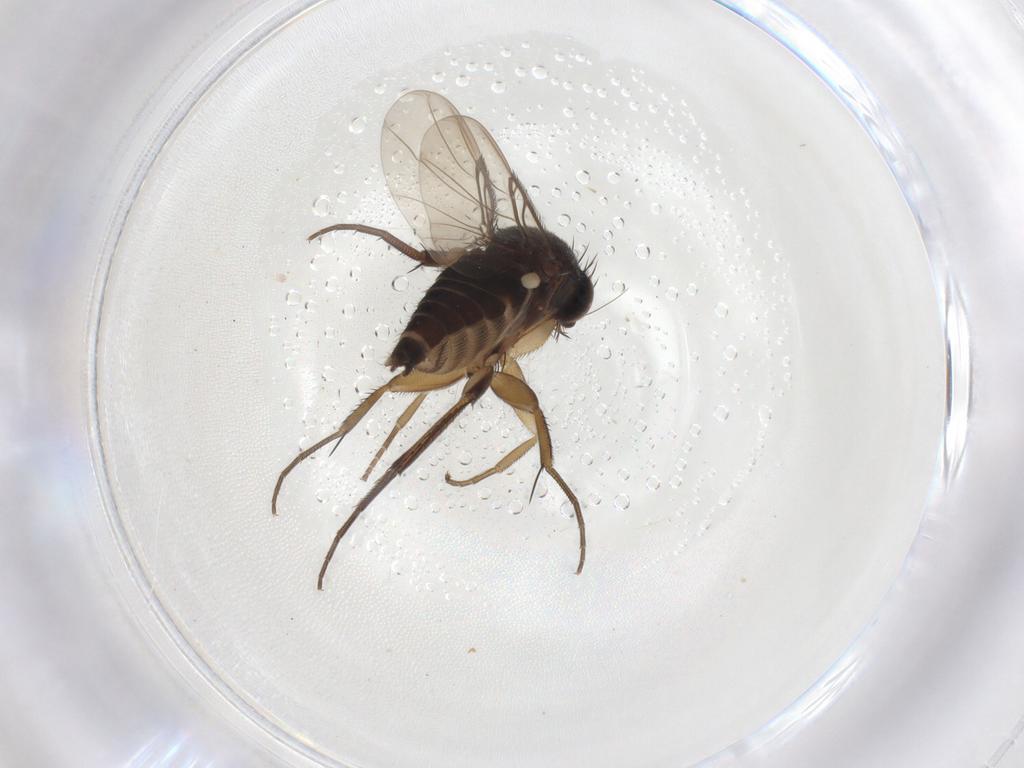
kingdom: Animalia
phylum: Arthropoda
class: Insecta
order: Diptera
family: Phoridae
